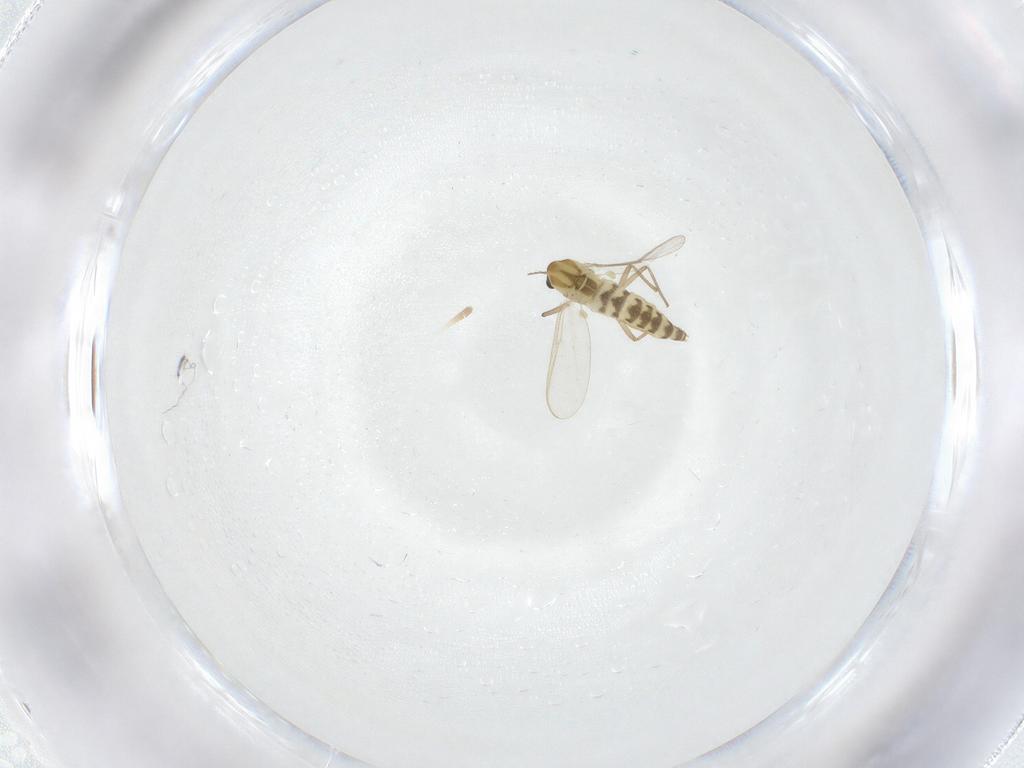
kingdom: Animalia
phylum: Arthropoda
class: Insecta
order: Diptera
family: Chironomidae
